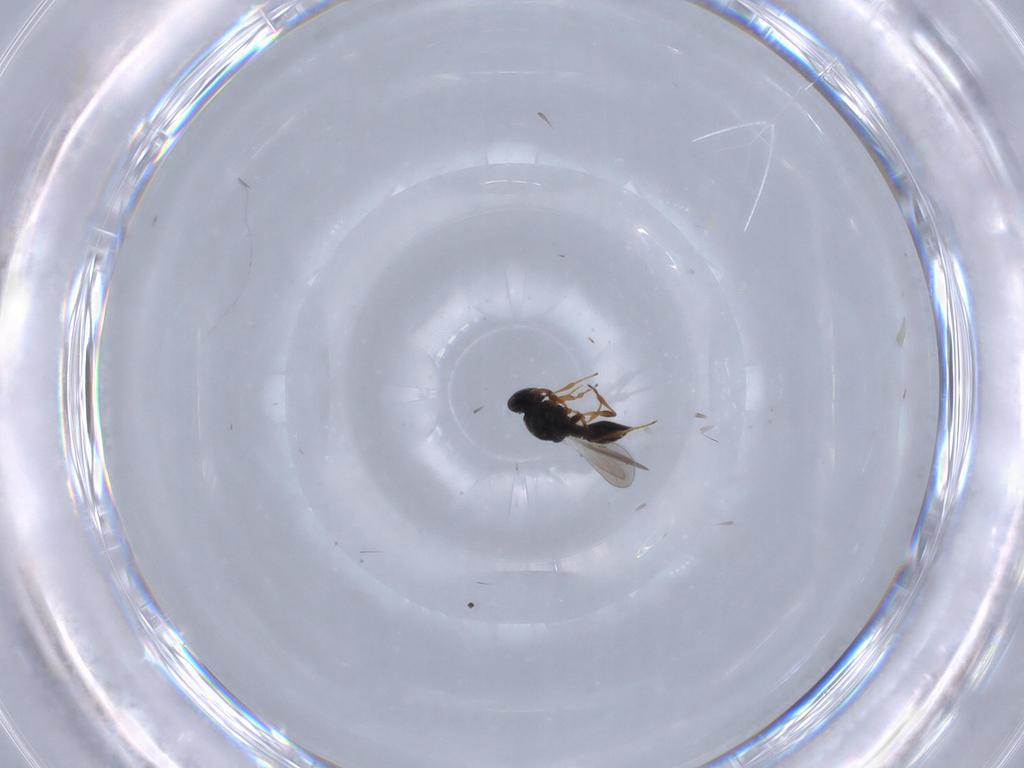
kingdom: Animalia
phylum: Arthropoda
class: Insecta
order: Hymenoptera
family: Platygastridae
